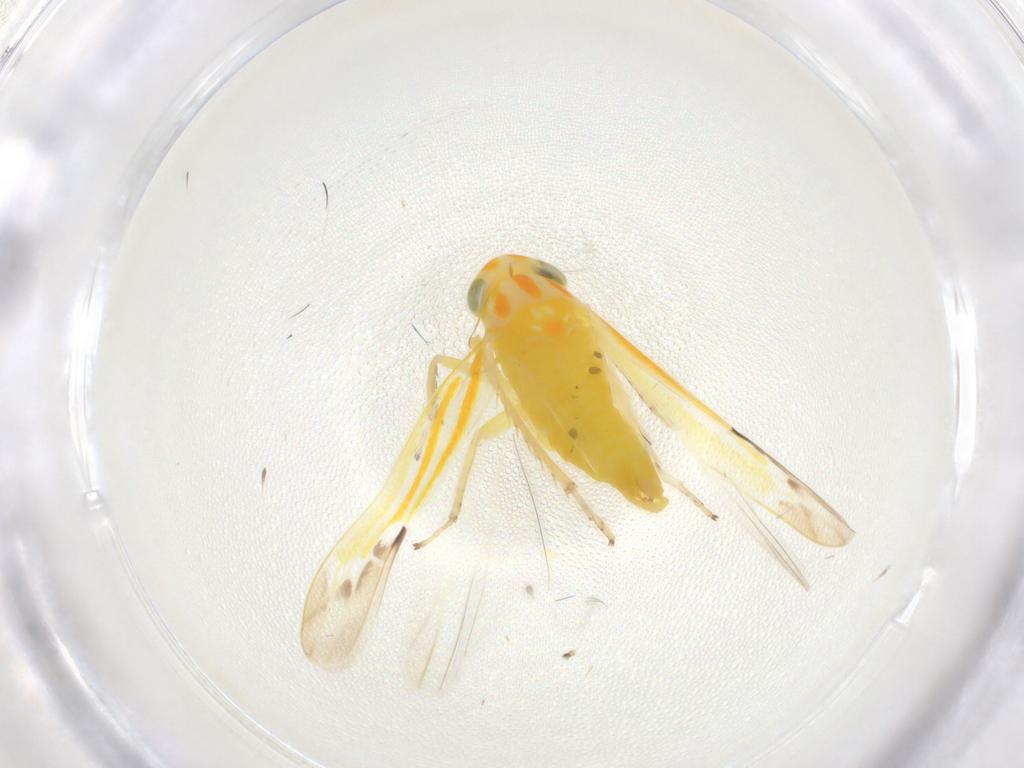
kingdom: Animalia
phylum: Arthropoda
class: Insecta
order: Hemiptera
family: Cicadellidae
